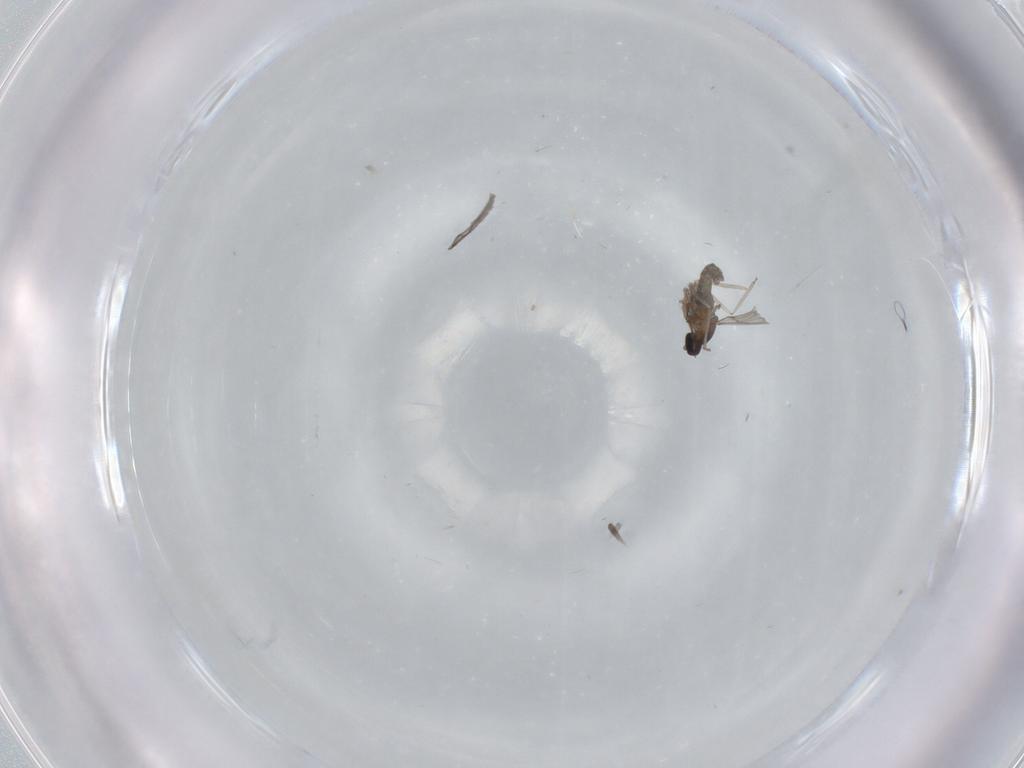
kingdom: Animalia
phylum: Arthropoda
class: Insecta
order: Diptera
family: Cecidomyiidae
